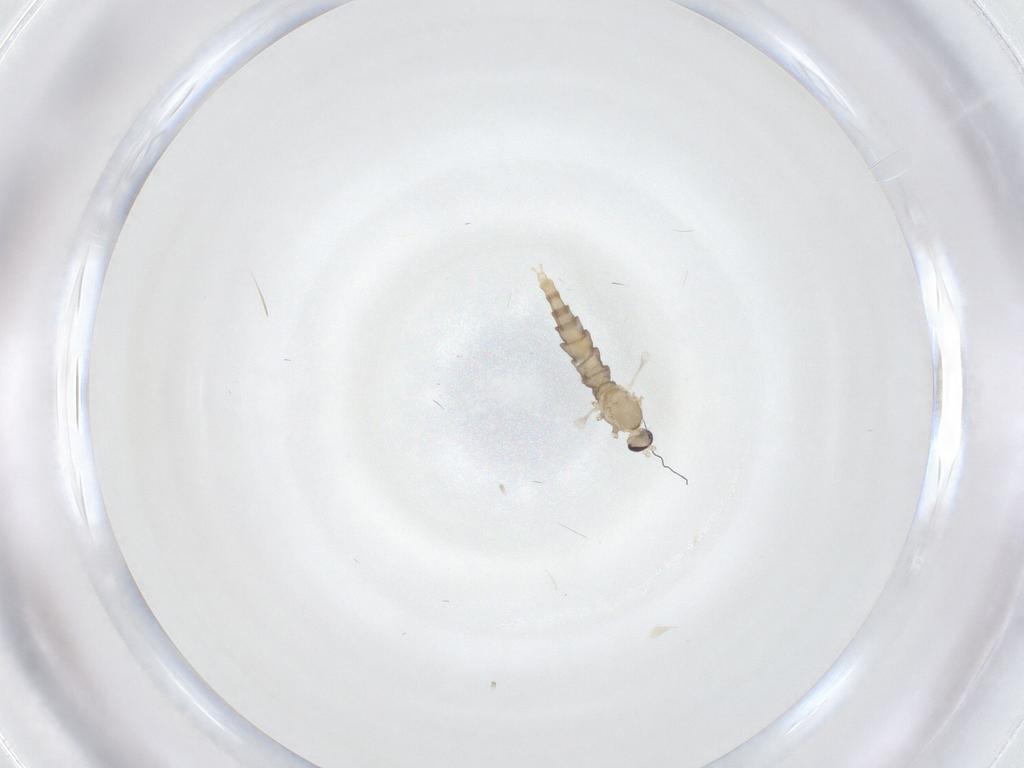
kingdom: Animalia
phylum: Arthropoda
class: Insecta
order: Diptera
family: Cecidomyiidae
